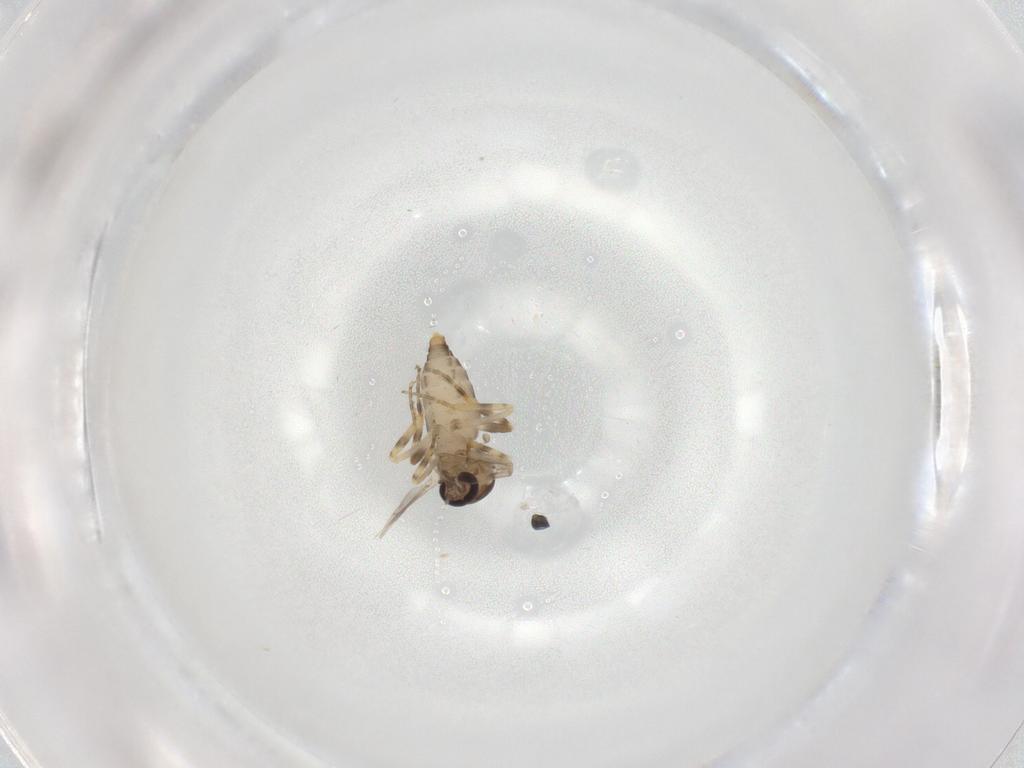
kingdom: Animalia
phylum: Arthropoda
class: Insecta
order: Diptera
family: Ceratopogonidae
